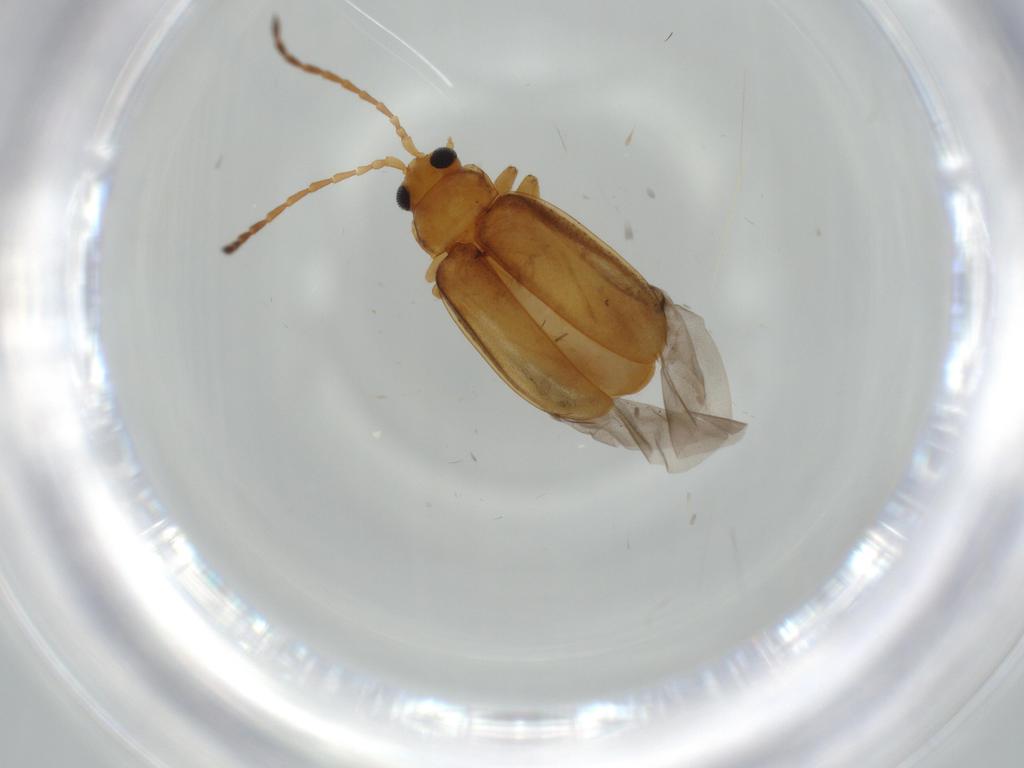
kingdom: Animalia
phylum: Arthropoda
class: Insecta
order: Coleoptera
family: Chrysomelidae
